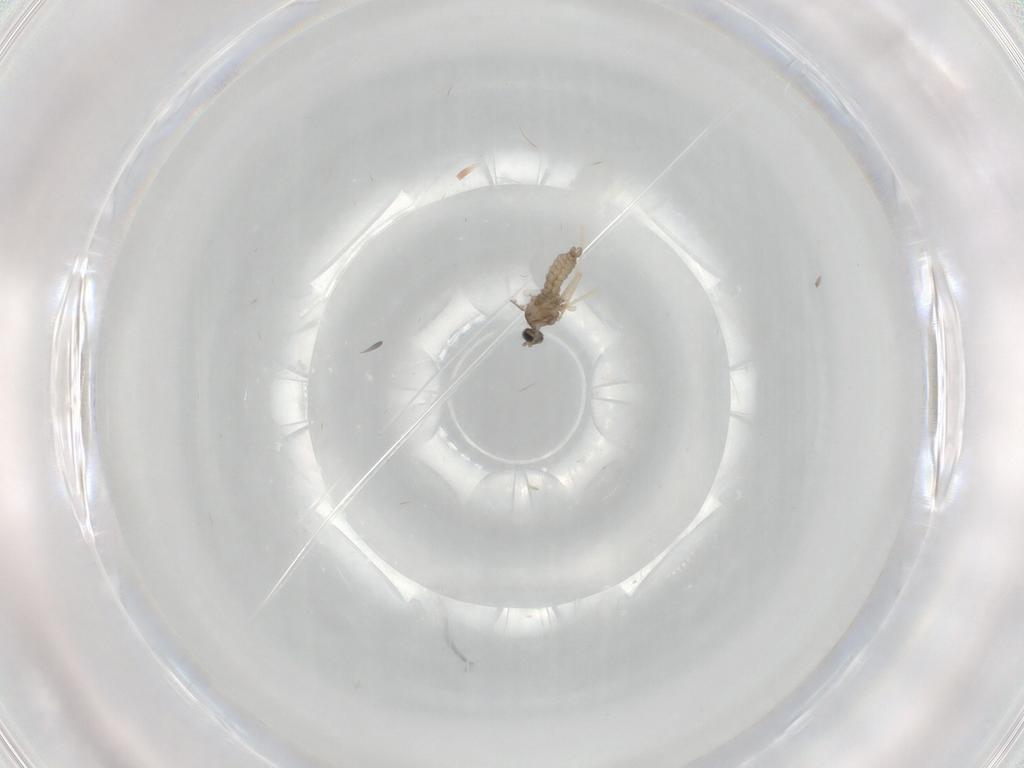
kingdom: Animalia
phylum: Arthropoda
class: Insecta
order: Diptera
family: Culicidae
